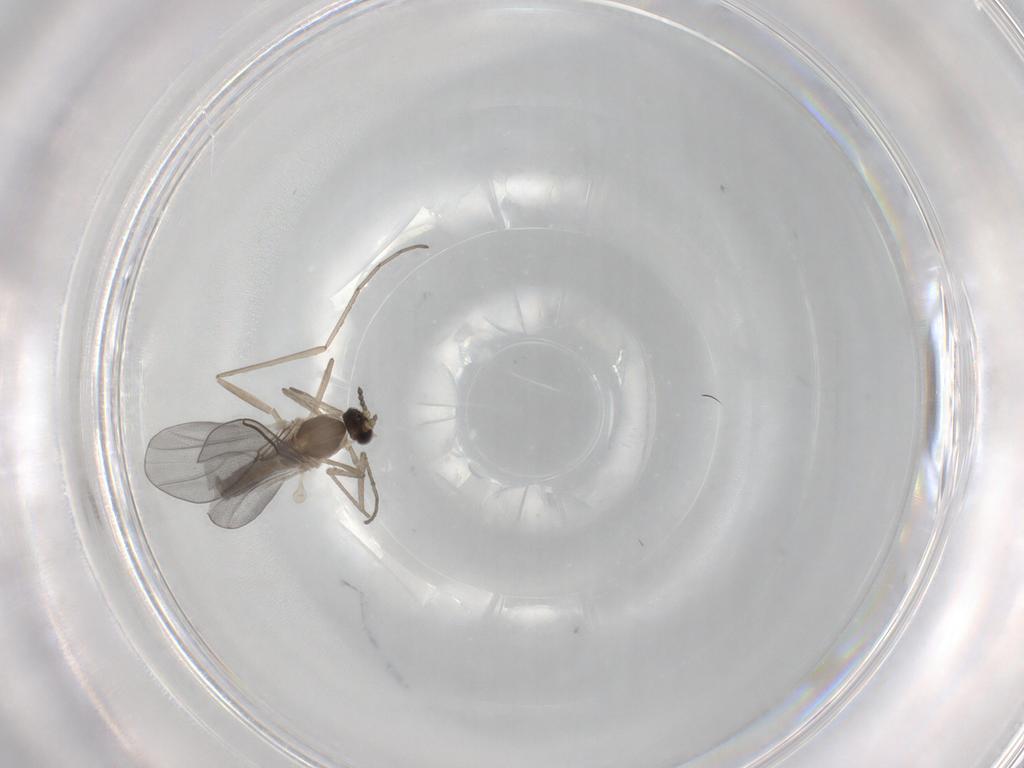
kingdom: Animalia
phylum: Arthropoda
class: Insecta
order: Diptera
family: Cecidomyiidae
